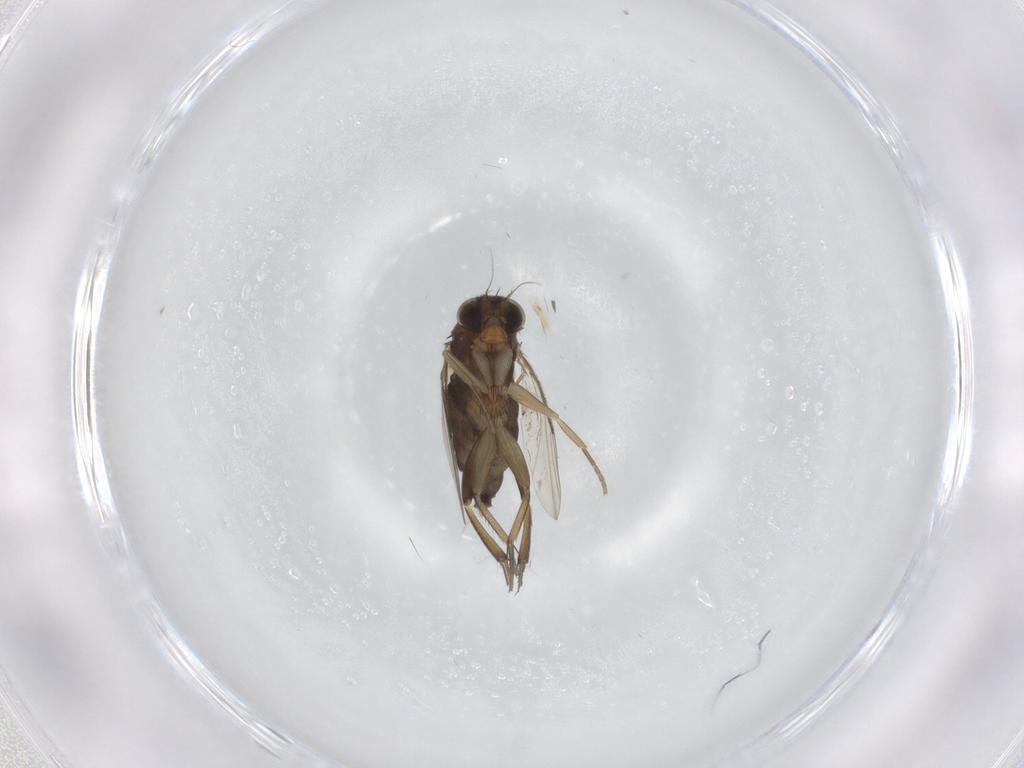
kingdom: Animalia
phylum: Arthropoda
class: Insecta
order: Diptera
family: Phoridae
